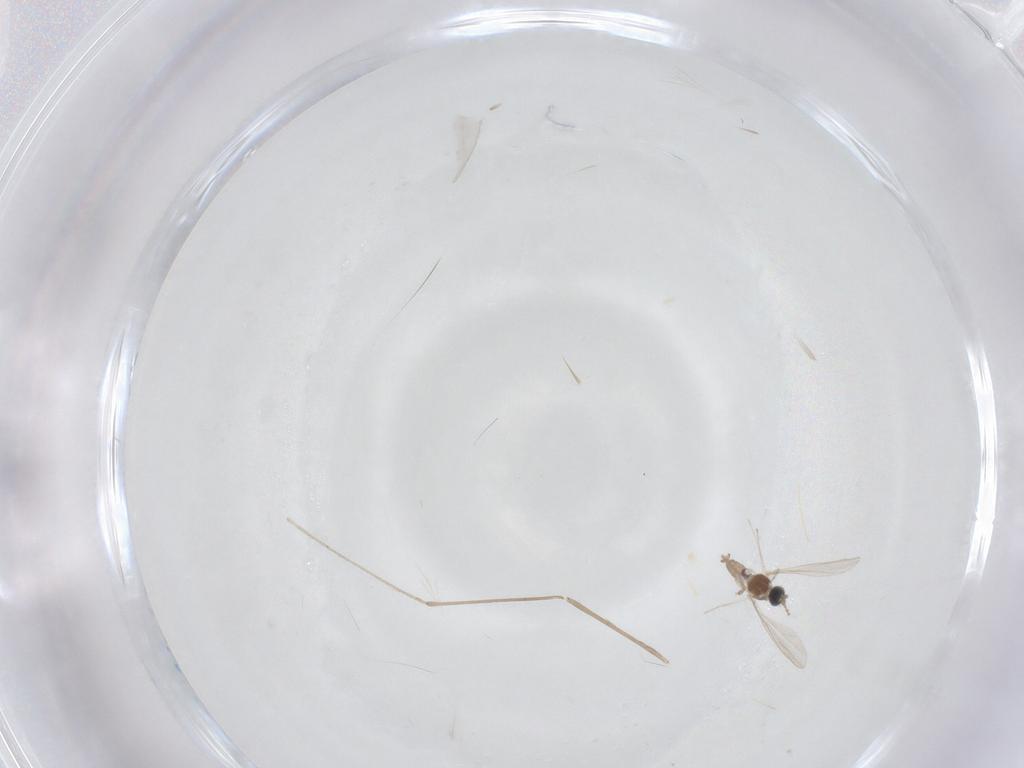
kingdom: Animalia
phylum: Arthropoda
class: Insecta
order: Diptera
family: Cecidomyiidae
